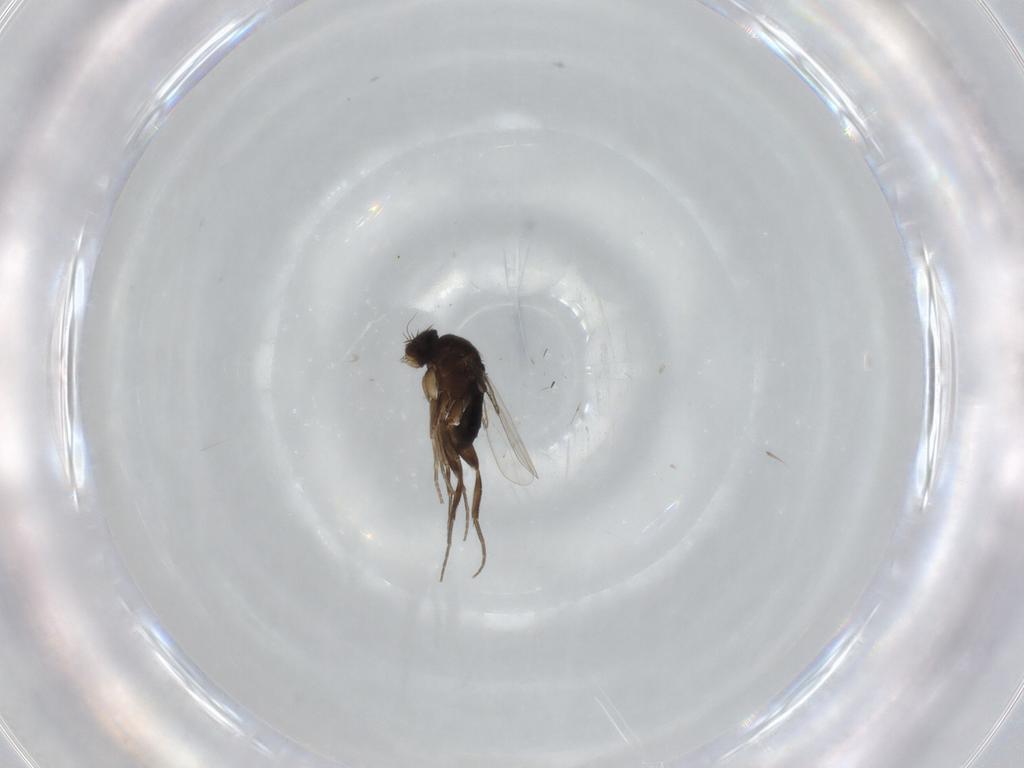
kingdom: Animalia
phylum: Arthropoda
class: Insecta
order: Diptera
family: Phoridae
